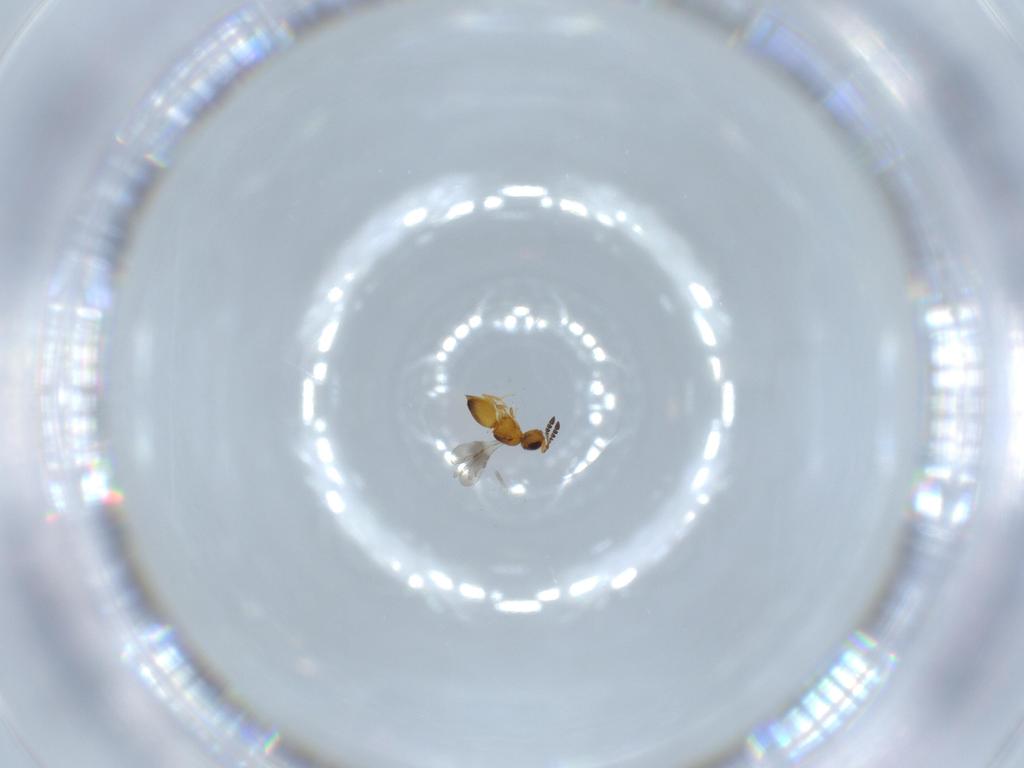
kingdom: Animalia
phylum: Arthropoda
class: Insecta
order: Hymenoptera
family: Ceraphronidae
